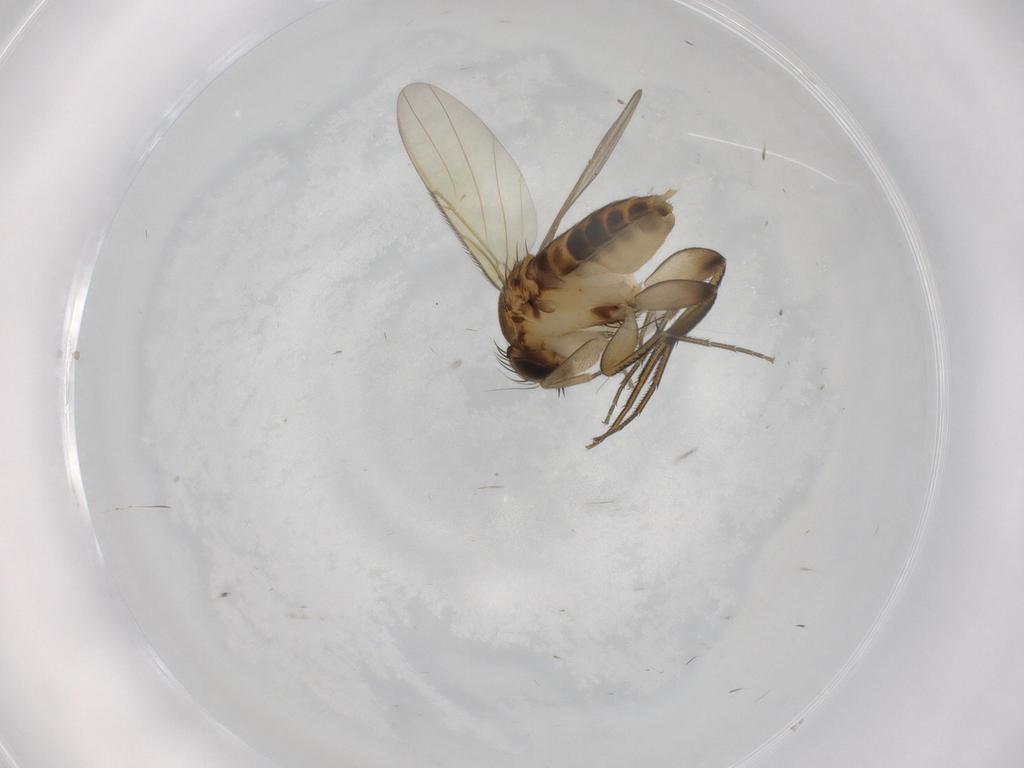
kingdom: Animalia
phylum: Arthropoda
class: Insecta
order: Diptera
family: Phoridae
